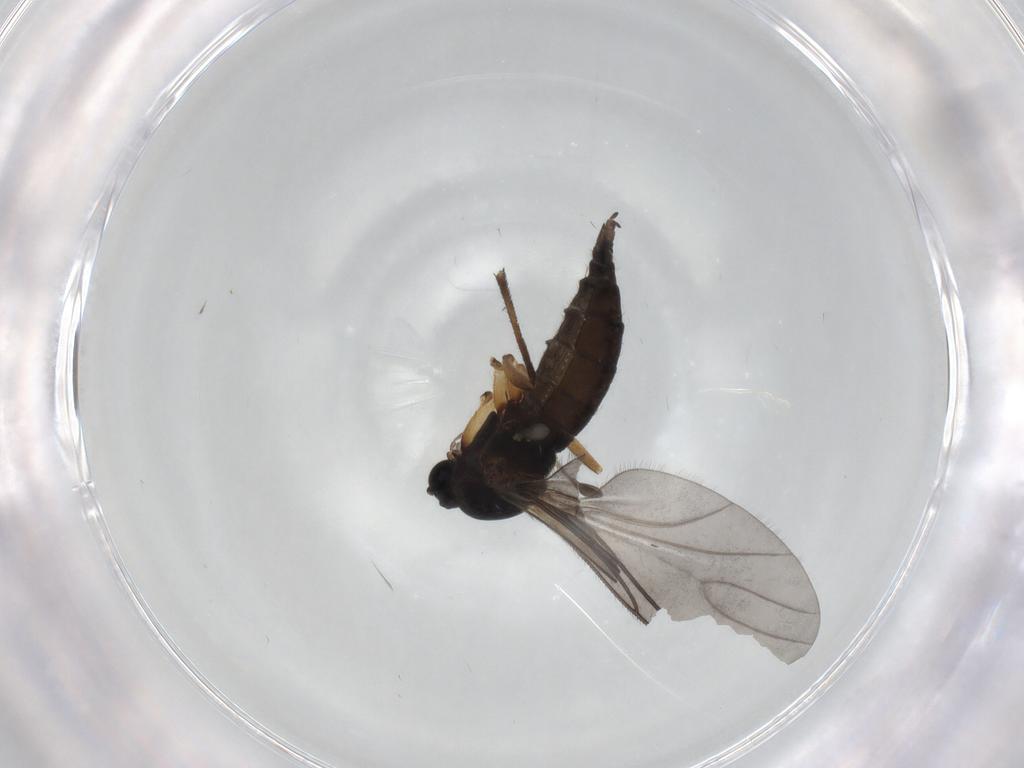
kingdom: Animalia
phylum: Arthropoda
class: Insecta
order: Diptera
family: Sciaridae
